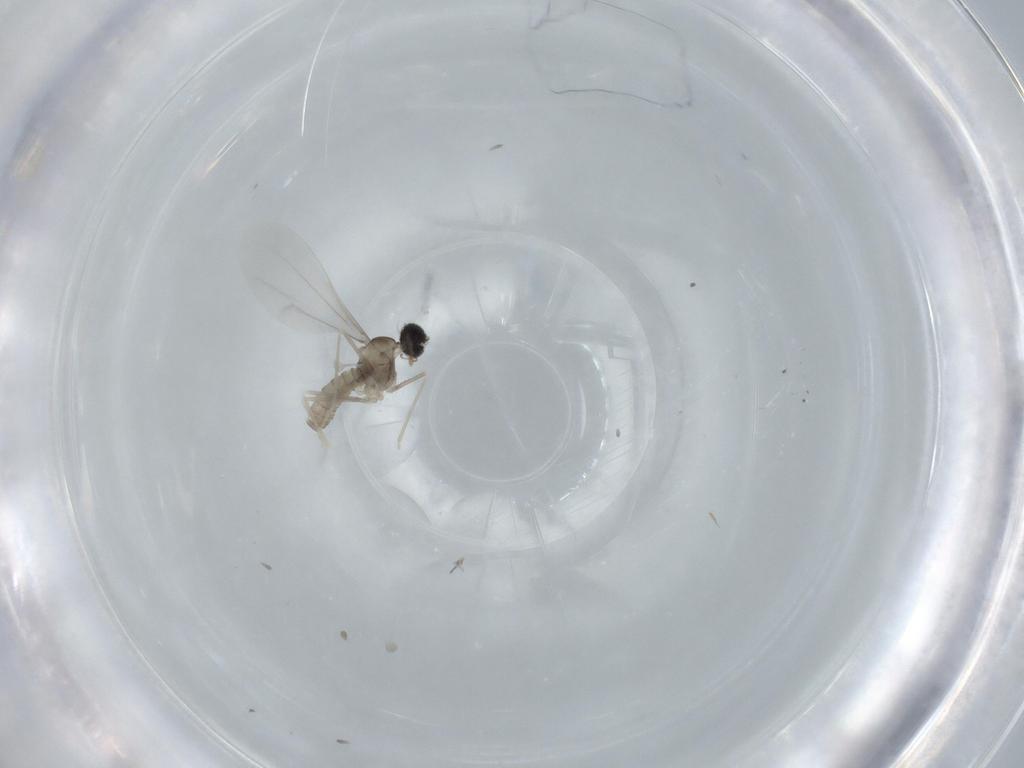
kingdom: Animalia
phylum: Arthropoda
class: Insecta
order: Diptera
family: Cecidomyiidae
